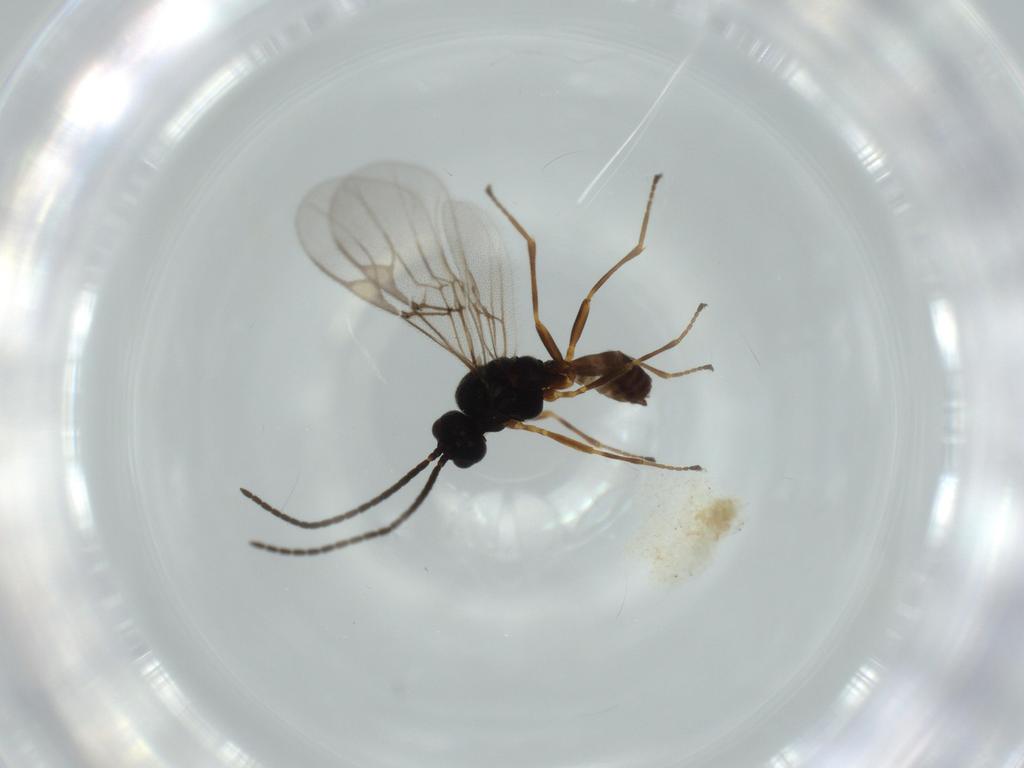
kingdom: Animalia
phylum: Arthropoda
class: Insecta
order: Hymenoptera
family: Braconidae
